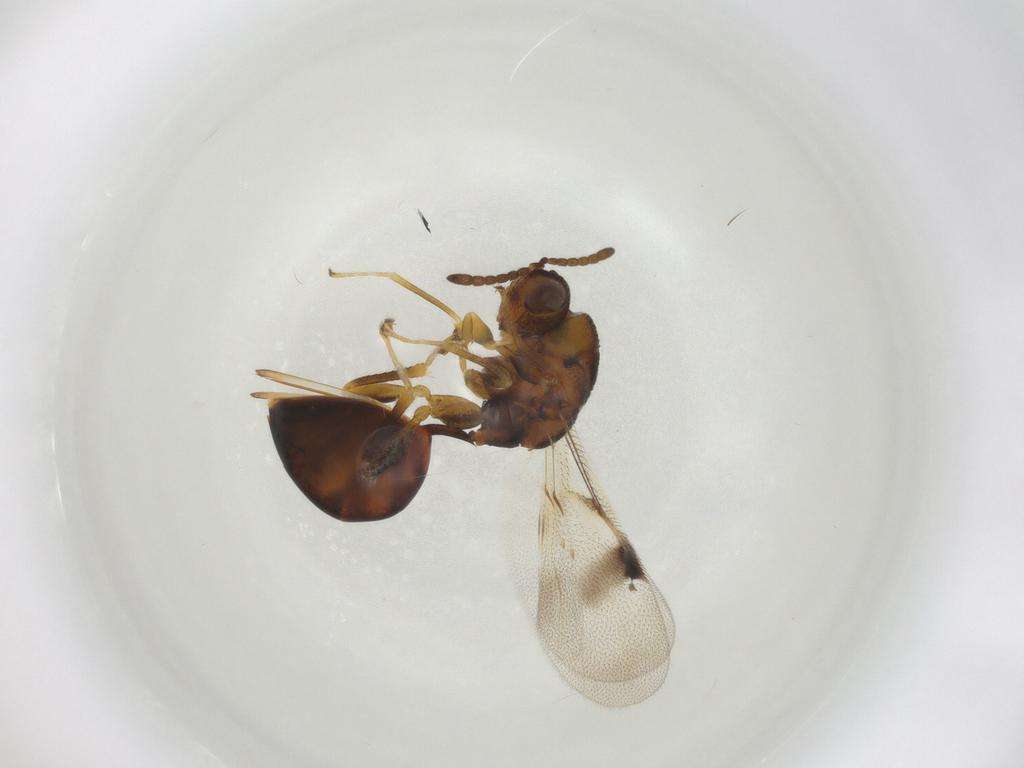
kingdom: Animalia
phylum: Arthropoda
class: Insecta
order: Hymenoptera
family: Eurytomidae
